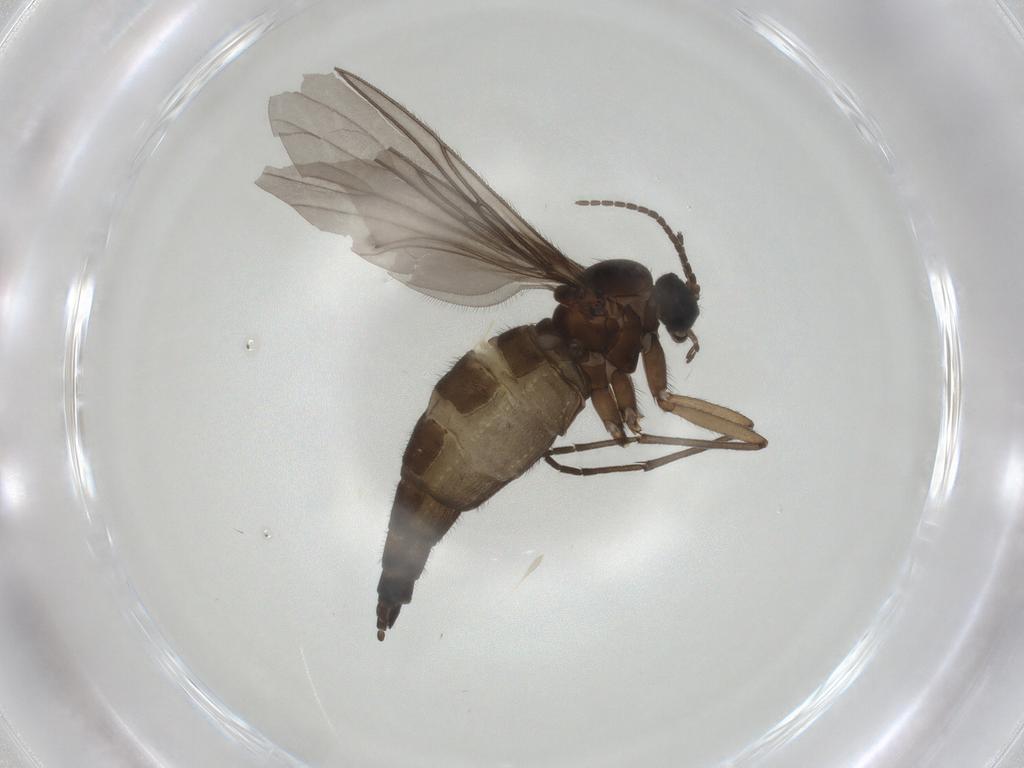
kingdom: Animalia
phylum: Arthropoda
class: Insecta
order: Diptera
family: Sciaridae
